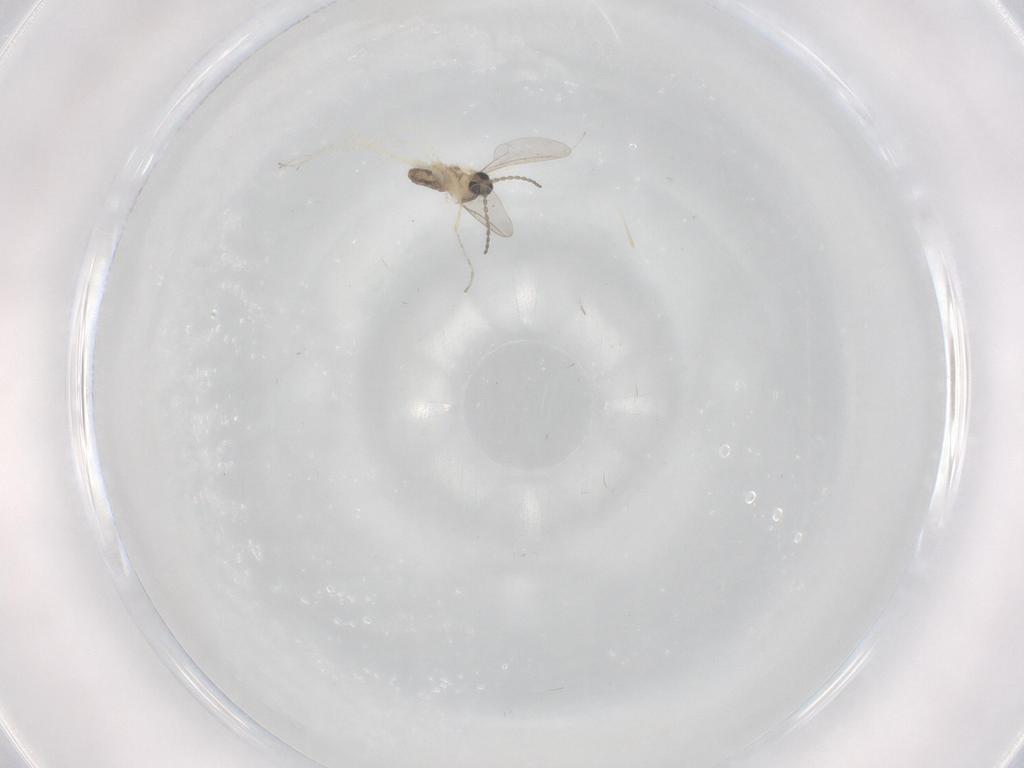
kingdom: Animalia
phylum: Arthropoda
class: Insecta
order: Diptera
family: Cecidomyiidae
